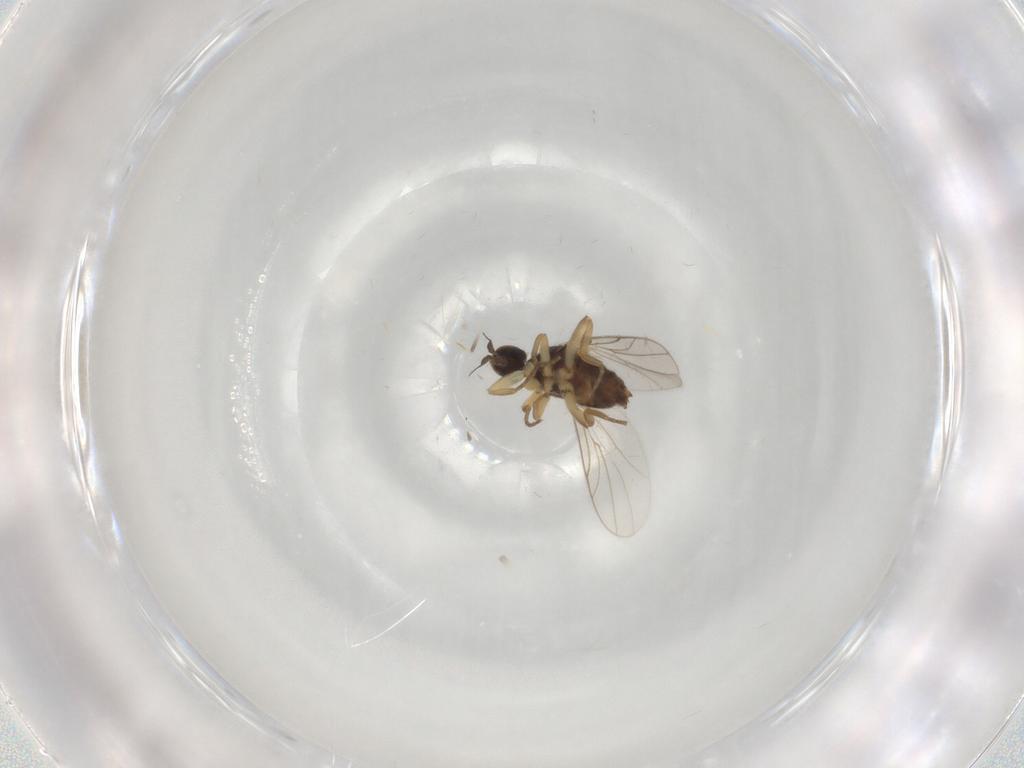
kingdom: Animalia
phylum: Arthropoda
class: Insecta
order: Diptera
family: Hybotidae
